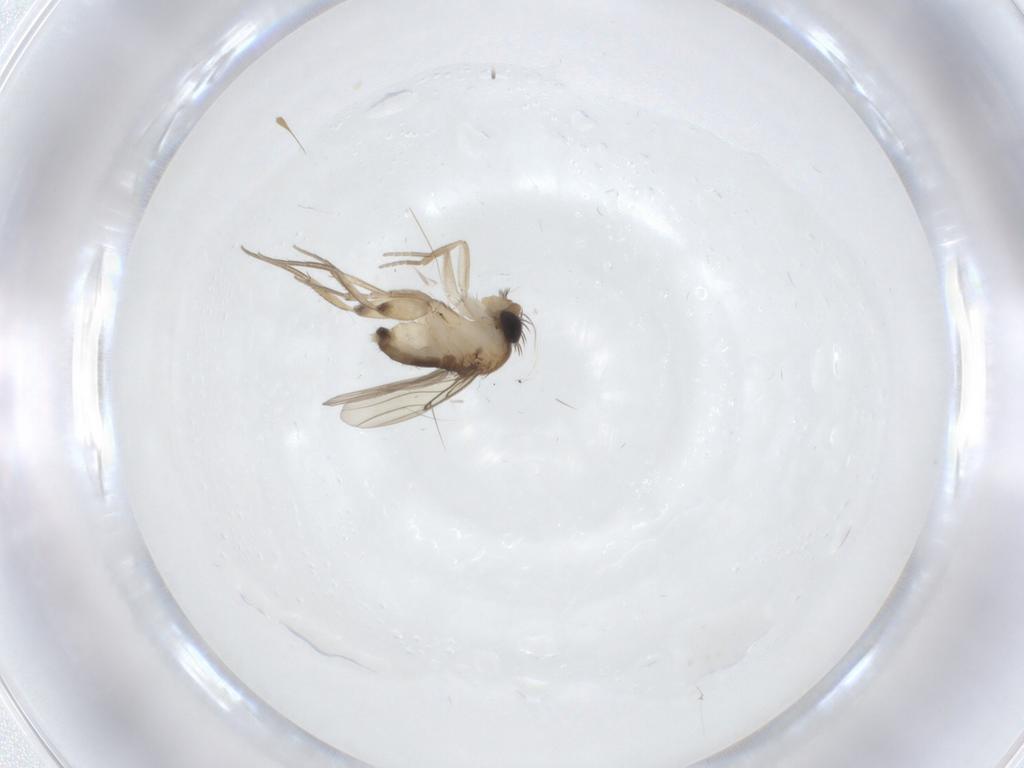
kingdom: Animalia
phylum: Arthropoda
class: Insecta
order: Diptera
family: Phoridae
